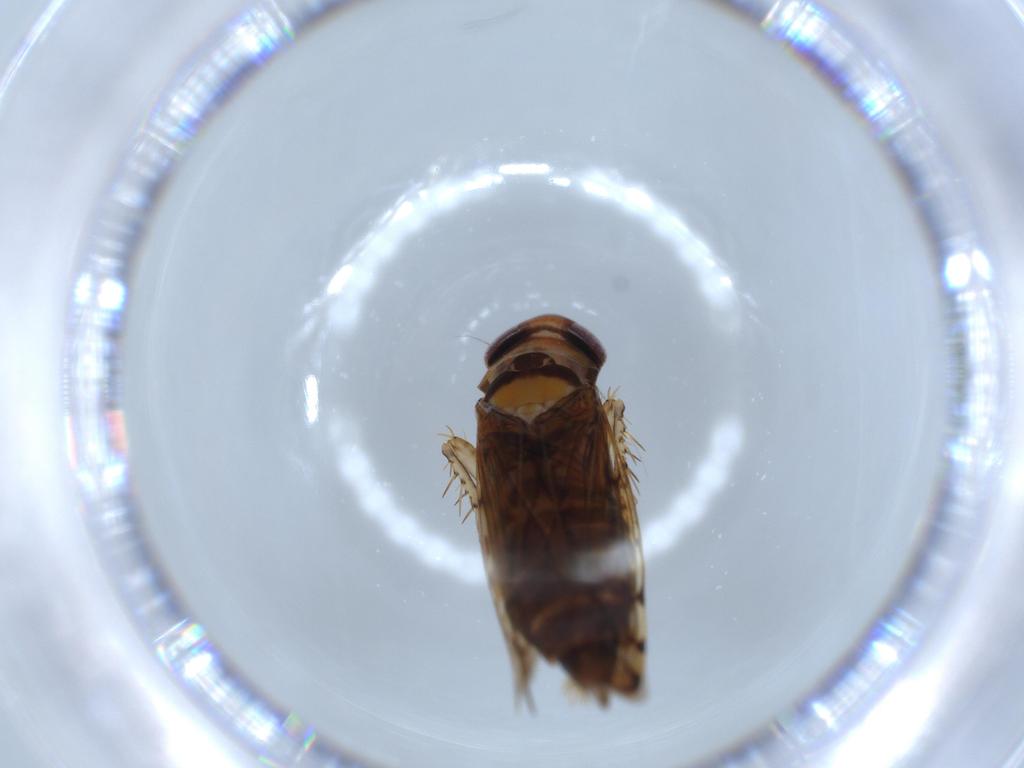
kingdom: Animalia
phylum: Arthropoda
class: Insecta
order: Hemiptera
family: Cicadellidae
